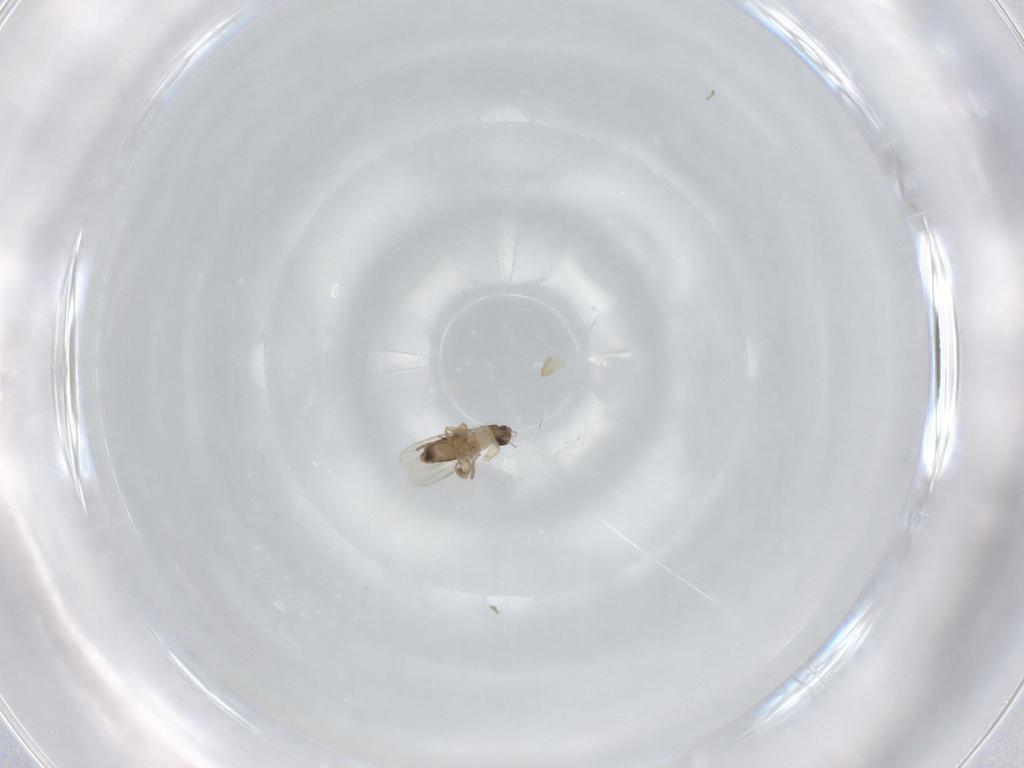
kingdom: Animalia
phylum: Arthropoda
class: Insecta
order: Diptera
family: Phoridae
